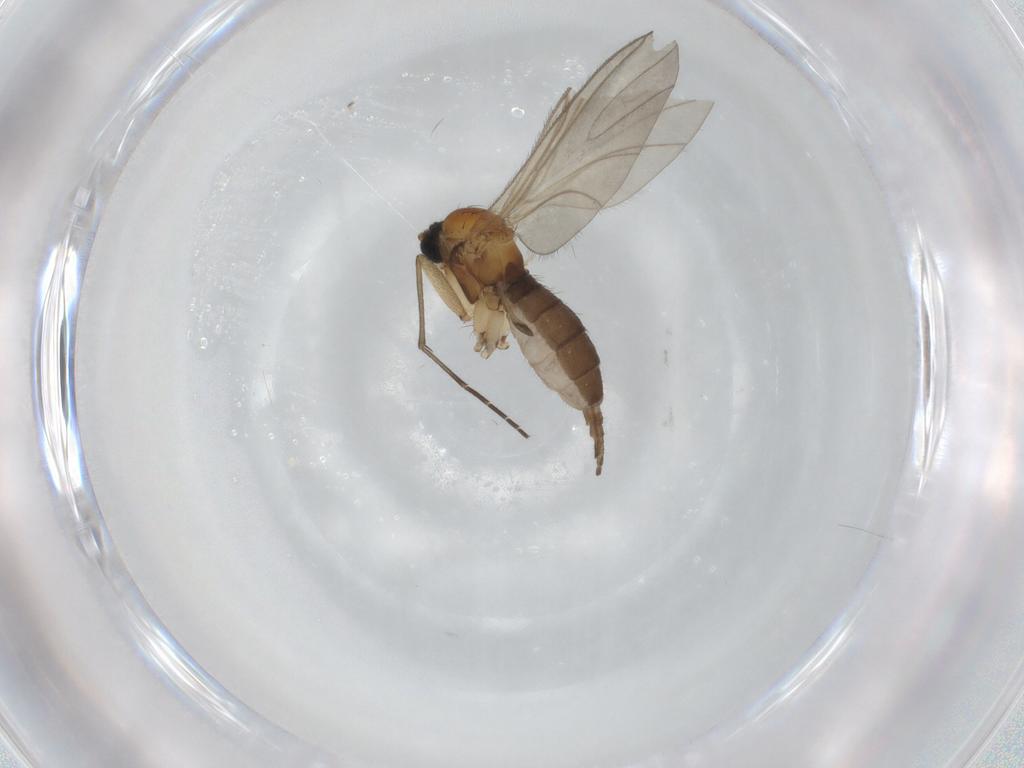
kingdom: Animalia
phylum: Arthropoda
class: Insecta
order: Diptera
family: Sciaridae
